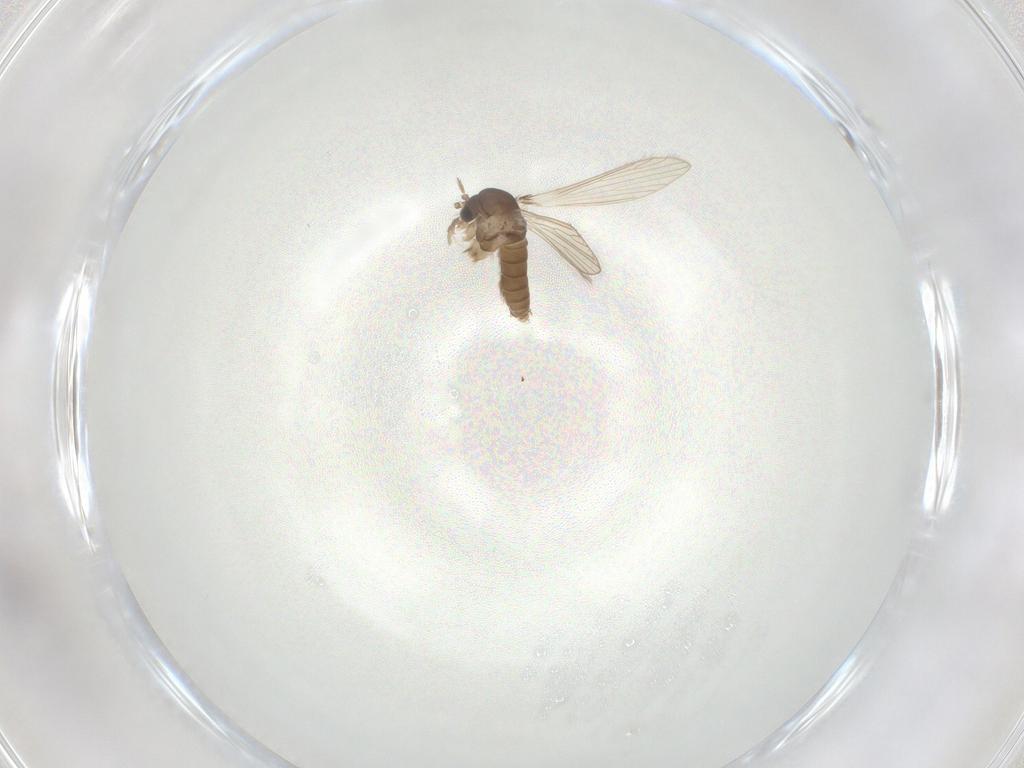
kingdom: Animalia
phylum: Arthropoda
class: Insecta
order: Diptera
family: Psychodidae
